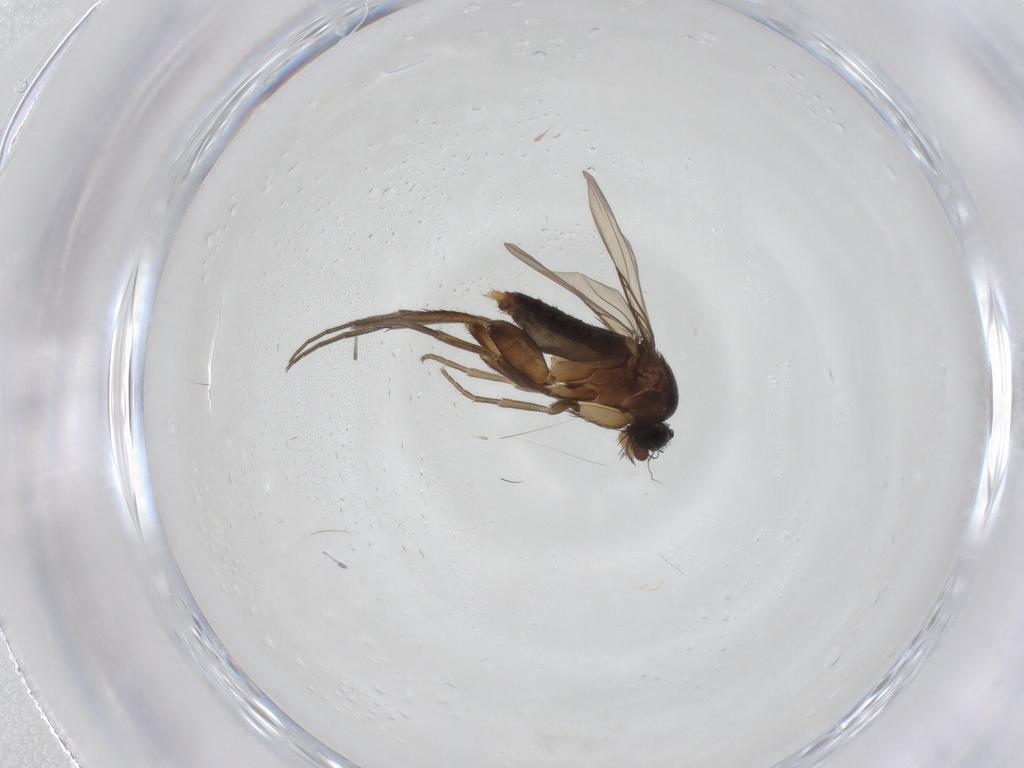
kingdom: Animalia
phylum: Arthropoda
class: Insecta
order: Diptera
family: Phoridae
